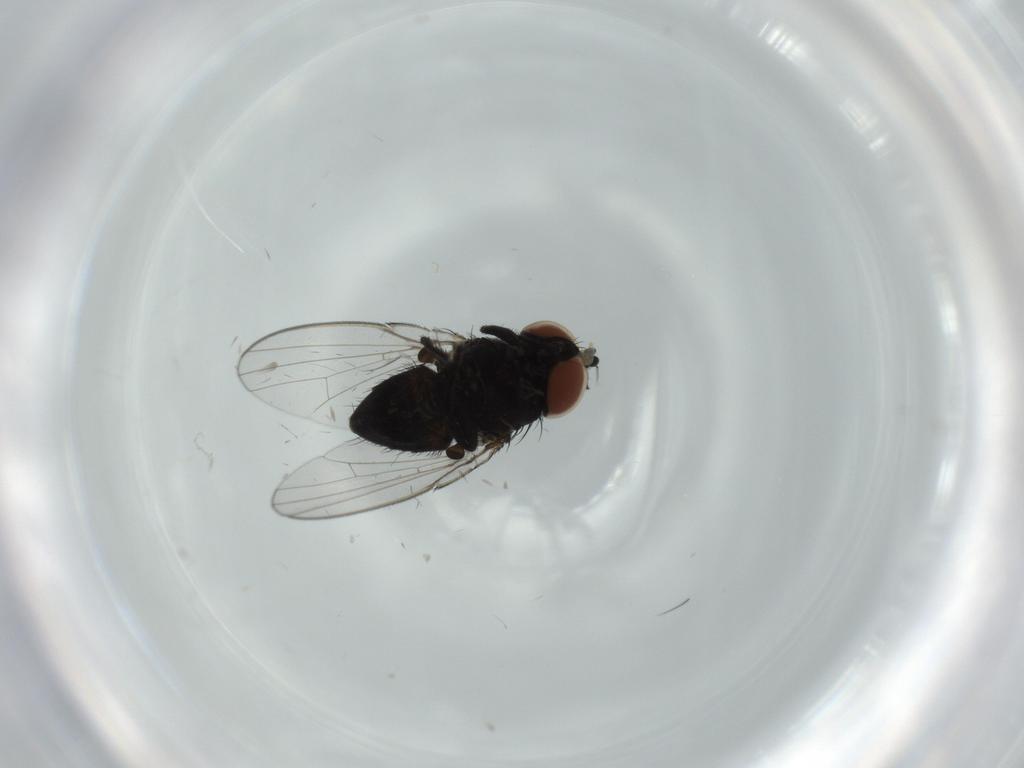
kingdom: Animalia
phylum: Arthropoda
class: Insecta
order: Diptera
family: Milichiidae
